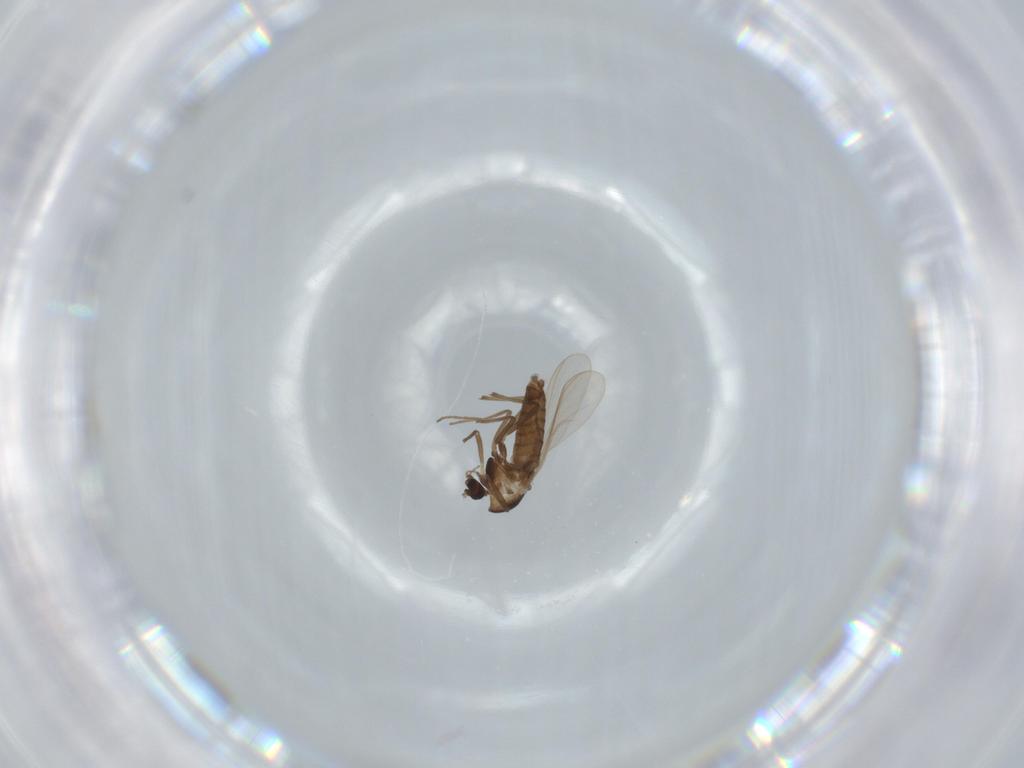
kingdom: Animalia
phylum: Arthropoda
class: Insecta
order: Diptera
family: Chironomidae
